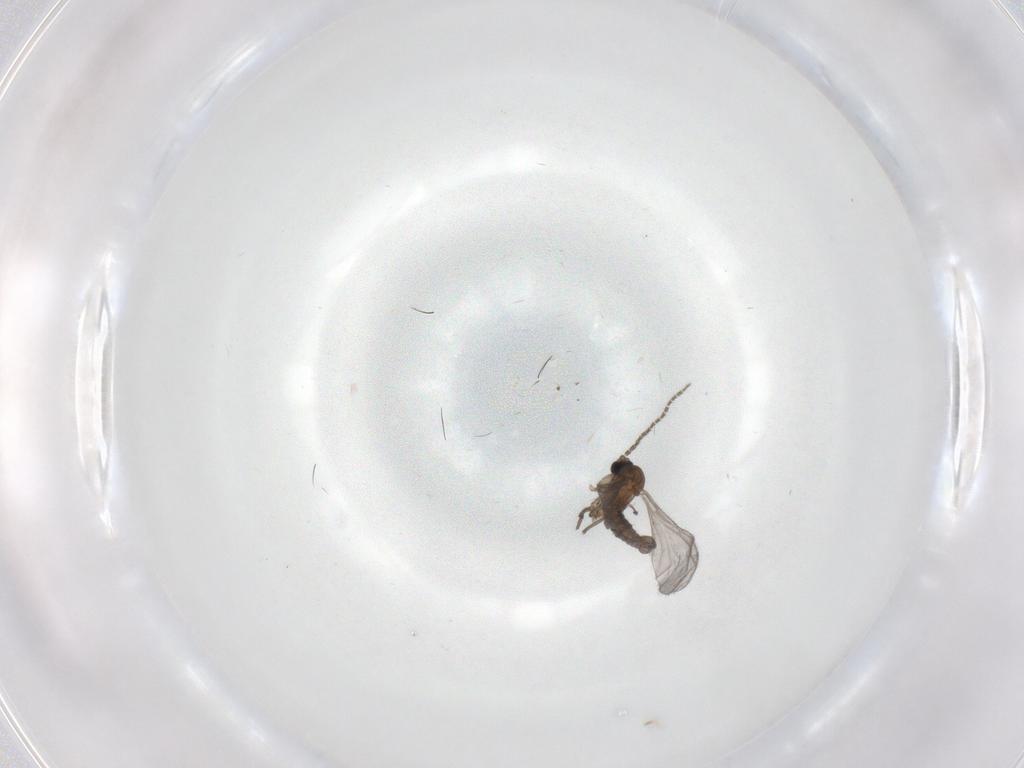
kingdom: Animalia
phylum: Arthropoda
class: Insecta
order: Diptera
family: Sciaridae
